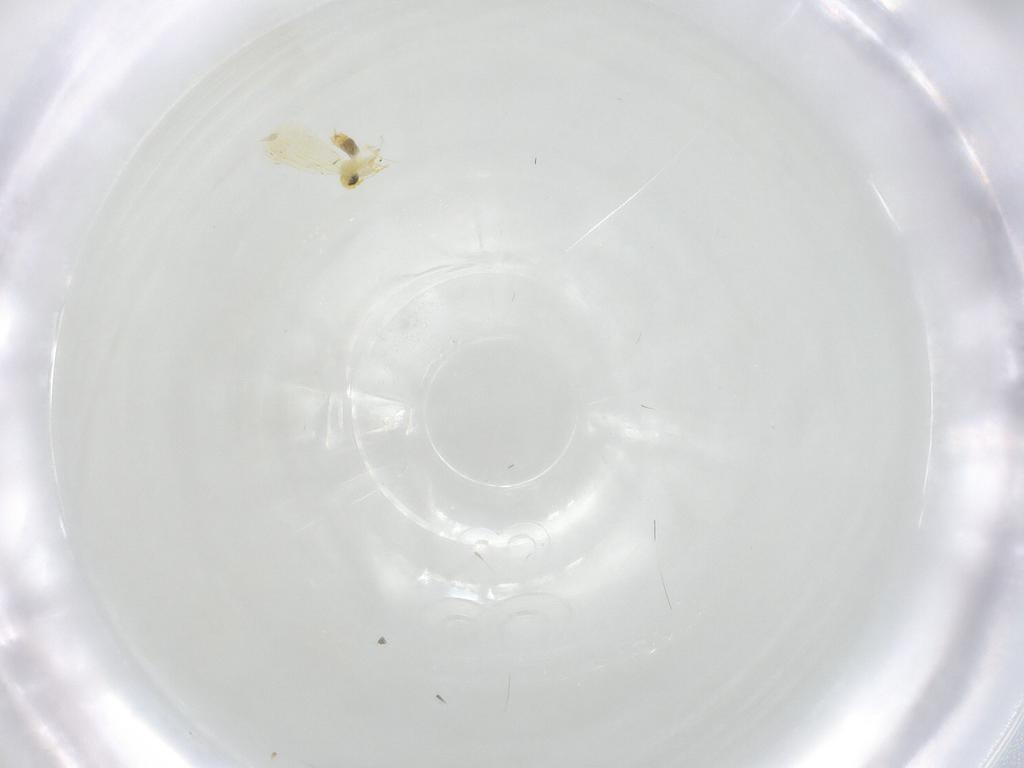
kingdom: Animalia
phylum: Arthropoda
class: Insecta
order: Hemiptera
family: Aleyrodidae
